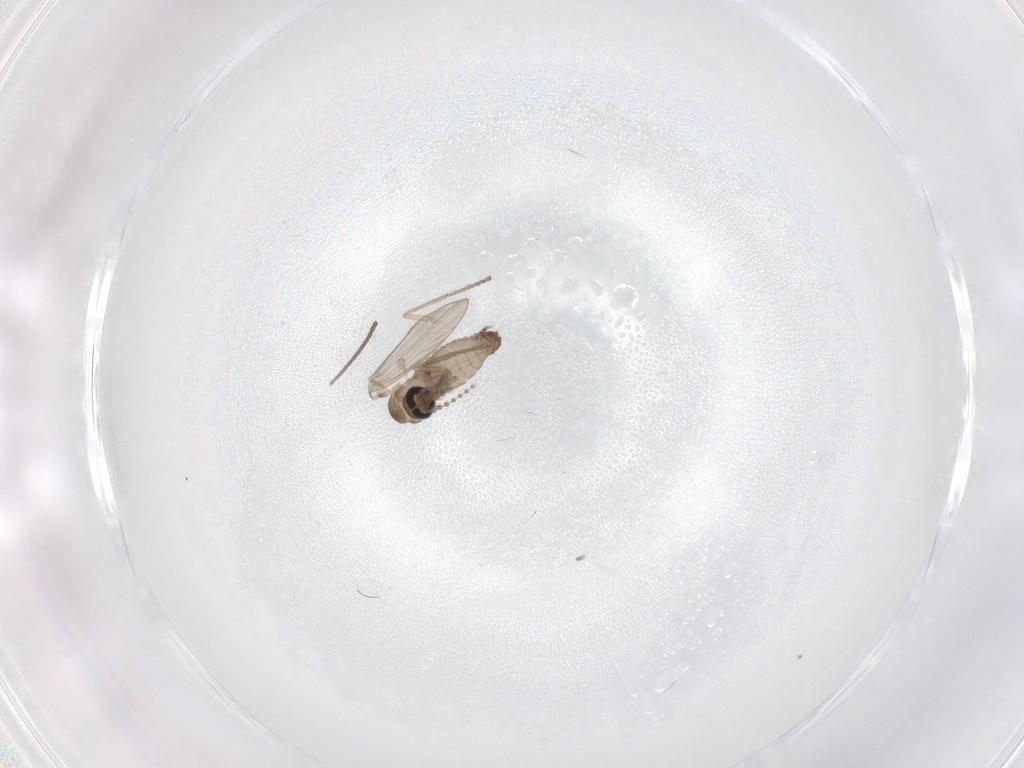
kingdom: Animalia
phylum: Arthropoda
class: Insecta
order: Diptera
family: Psychodidae
